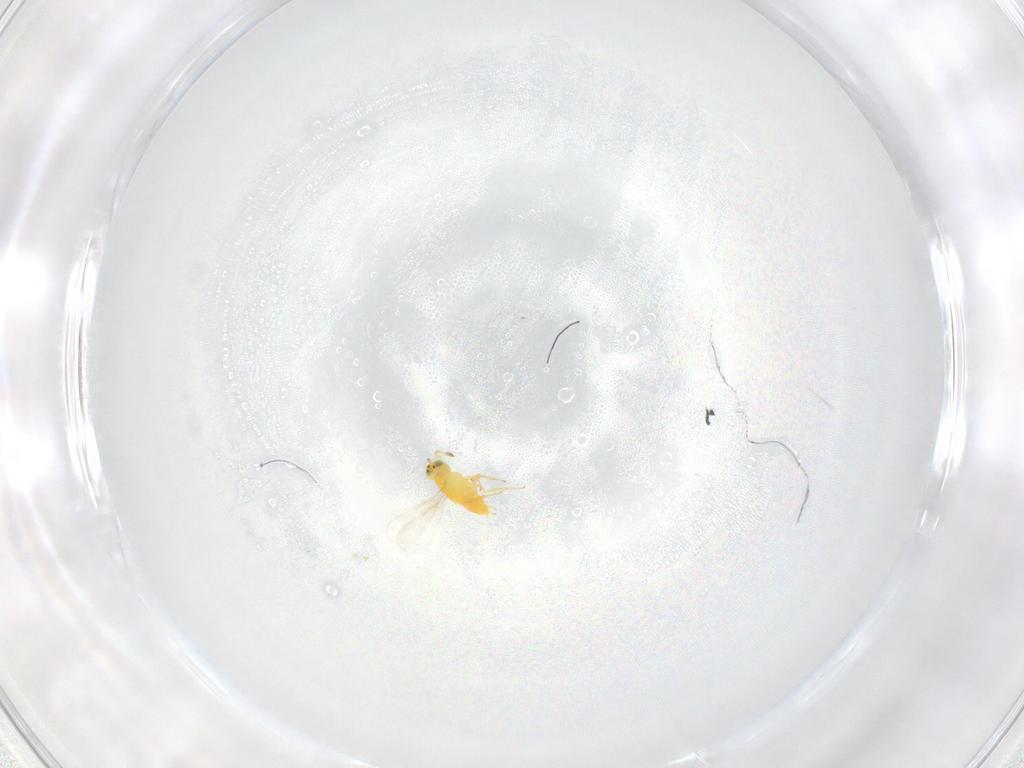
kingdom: Animalia
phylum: Arthropoda
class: Insecta
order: Hymenoptera
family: Aphelinidae
